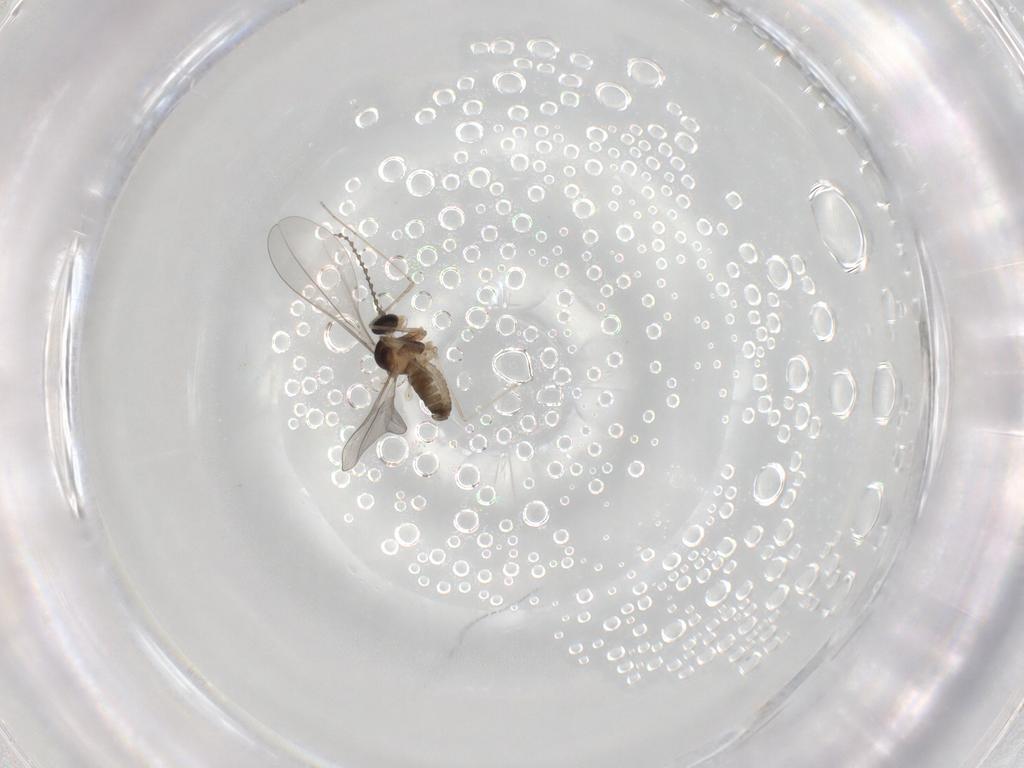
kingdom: Animalia
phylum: Arthropoda
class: Insecta
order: Diptera
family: Cecidomyiidae
